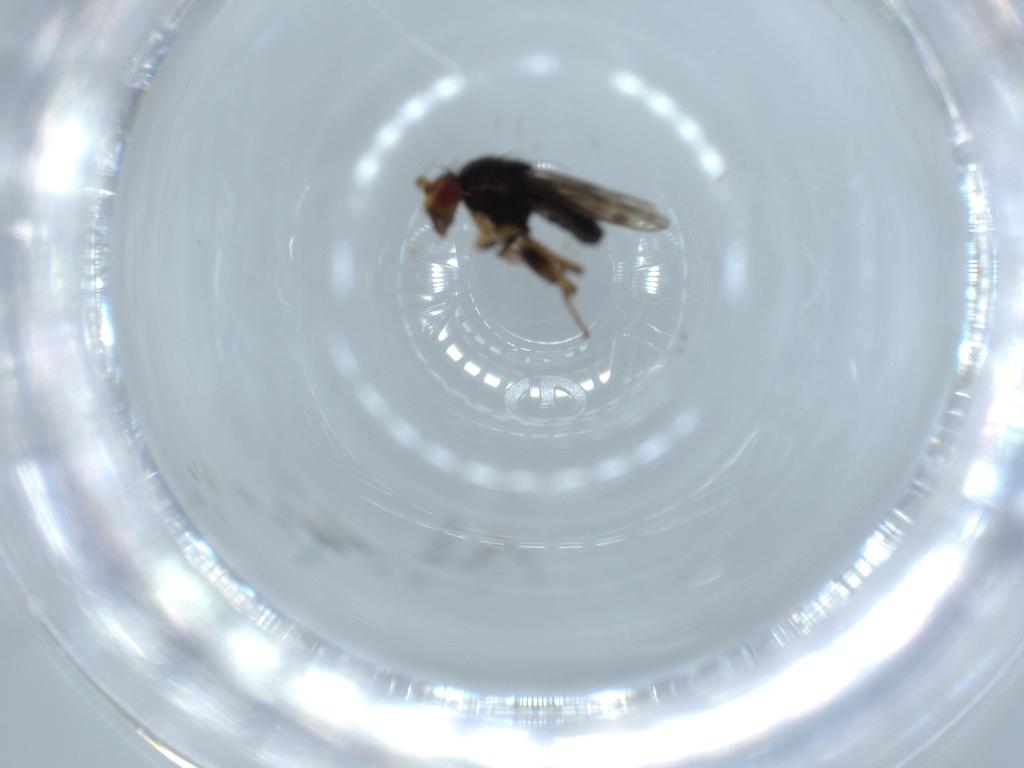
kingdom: Animalia
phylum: Arthropoda
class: Insecta
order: Diptera
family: Sphaeroceridae
